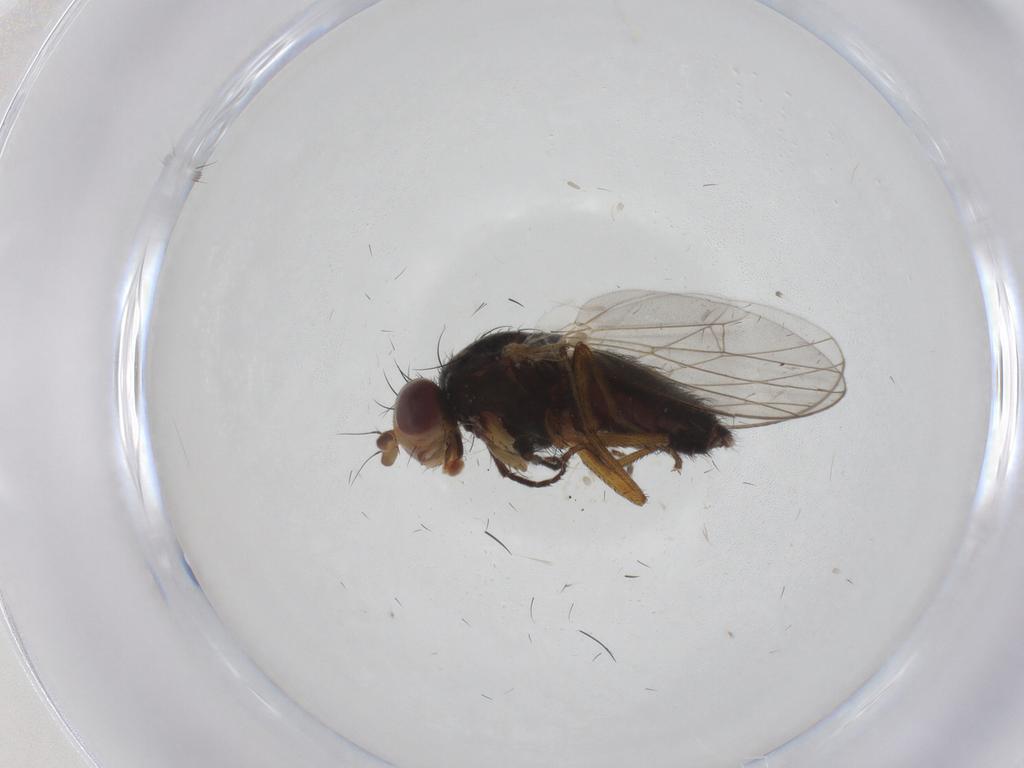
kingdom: Animalia
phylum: Arthropoda
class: Insecta
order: Diptera
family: Heleomyzidae
